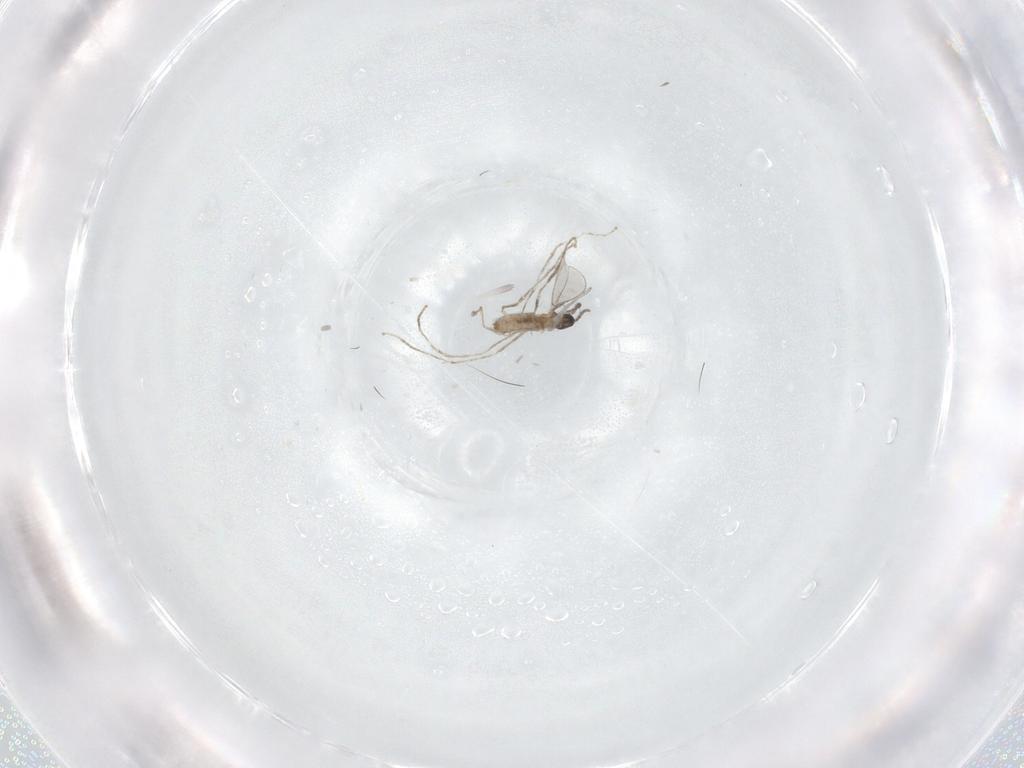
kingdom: Animalia
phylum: Arthropoda
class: Insecta
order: Diptera
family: Cecidomyiidae
